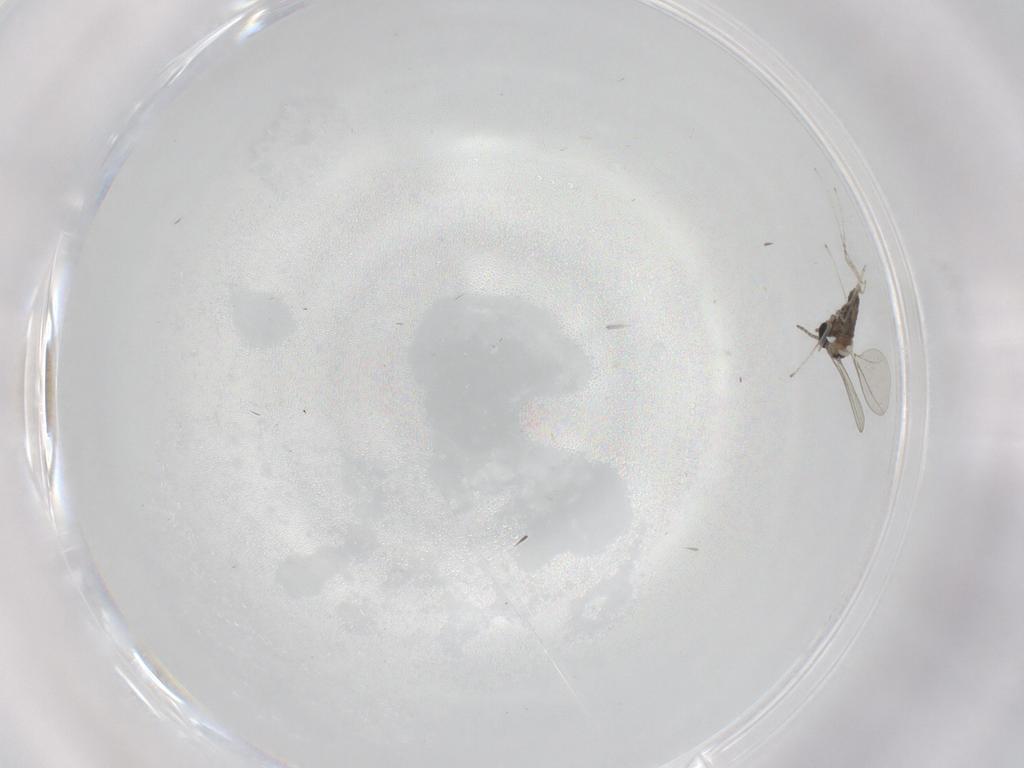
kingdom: Animalia
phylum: Arthropoda
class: Insecta
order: Diptera
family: Cecidomyiidae
